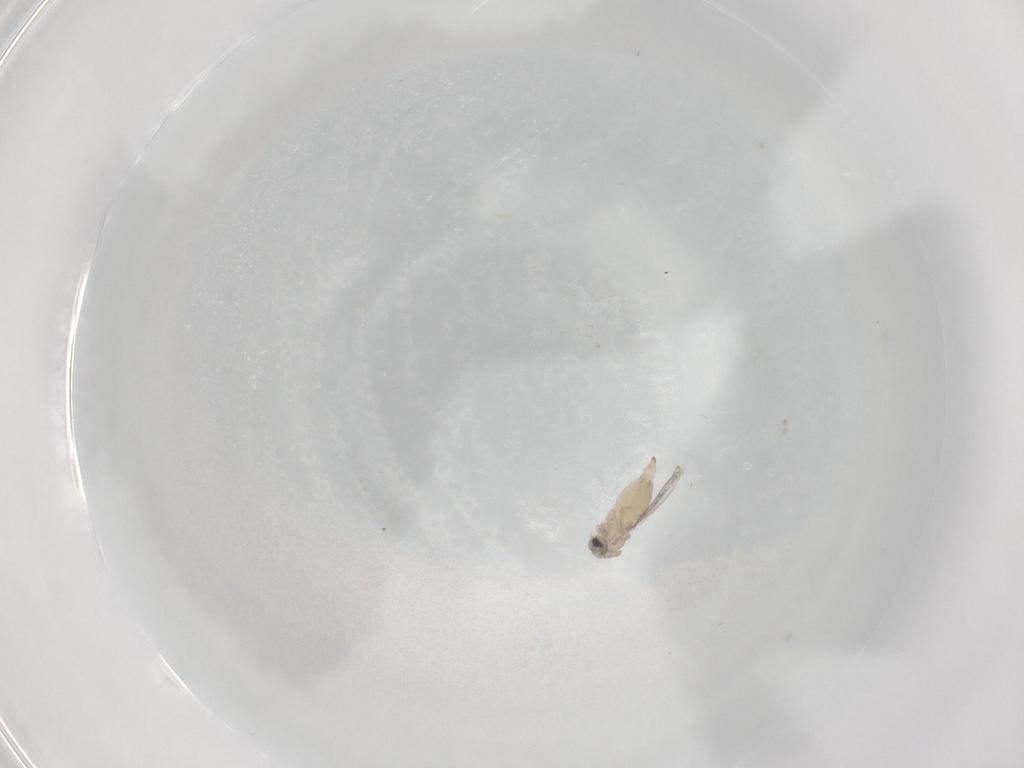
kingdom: Animalia
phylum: Arthropoda
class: Insecta
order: Diptera
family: Cecidomyiidae
